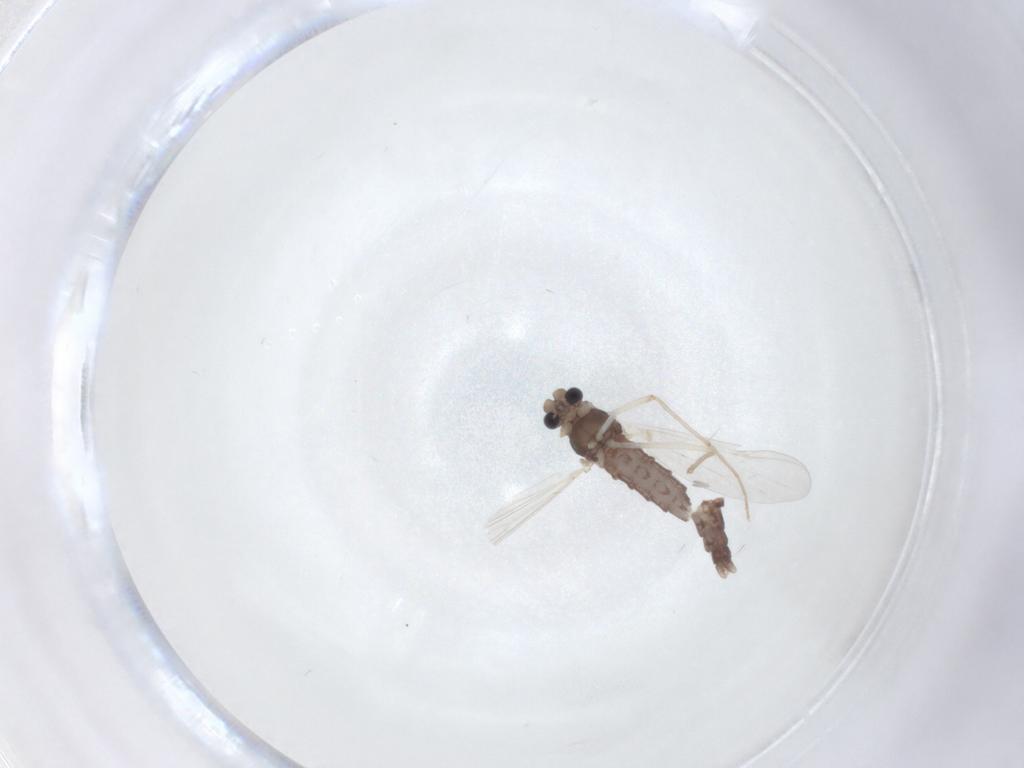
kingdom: Animalia
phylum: Arthropoda
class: Insecta
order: Diptera
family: Chironomidae
